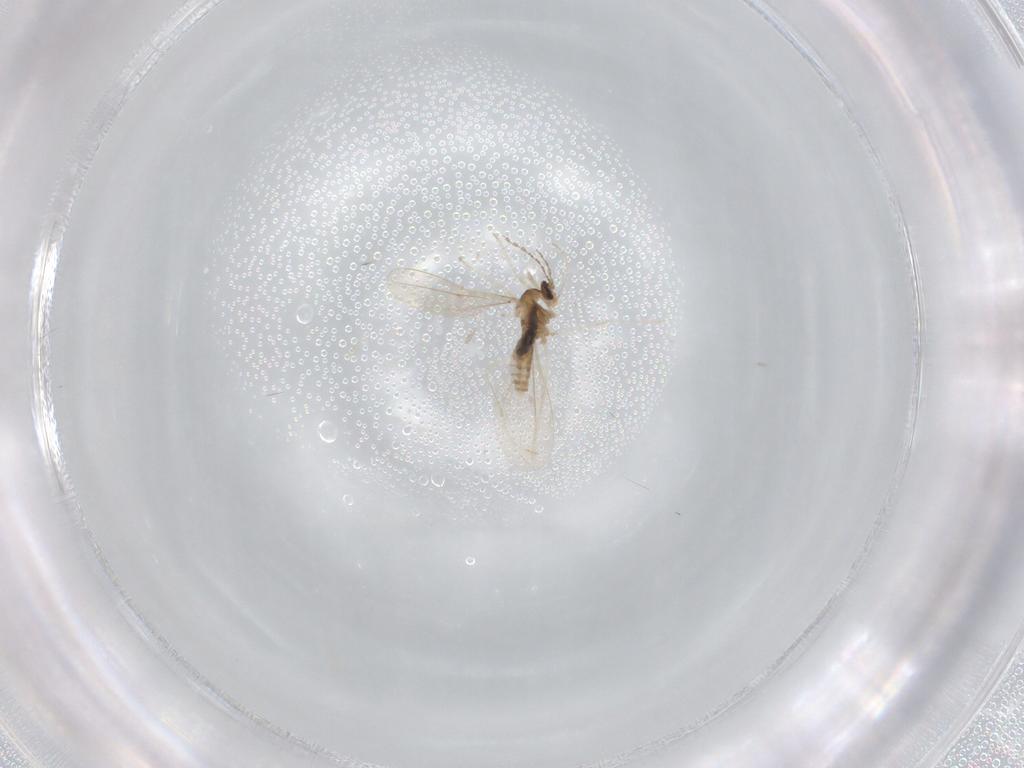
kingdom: Animalia
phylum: Arthropoda
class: Insecta
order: Diptera
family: Cecidomyiidae
